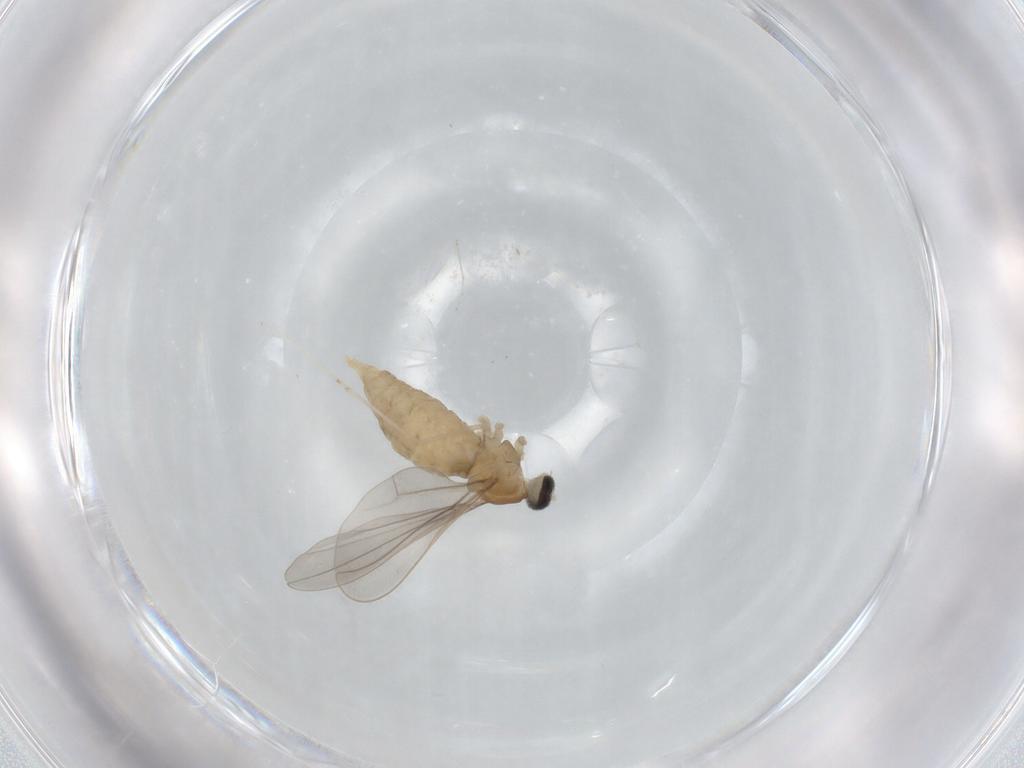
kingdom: Animalia
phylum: Arthropoda
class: Insecta
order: Diptera
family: Cecidomyiidae
